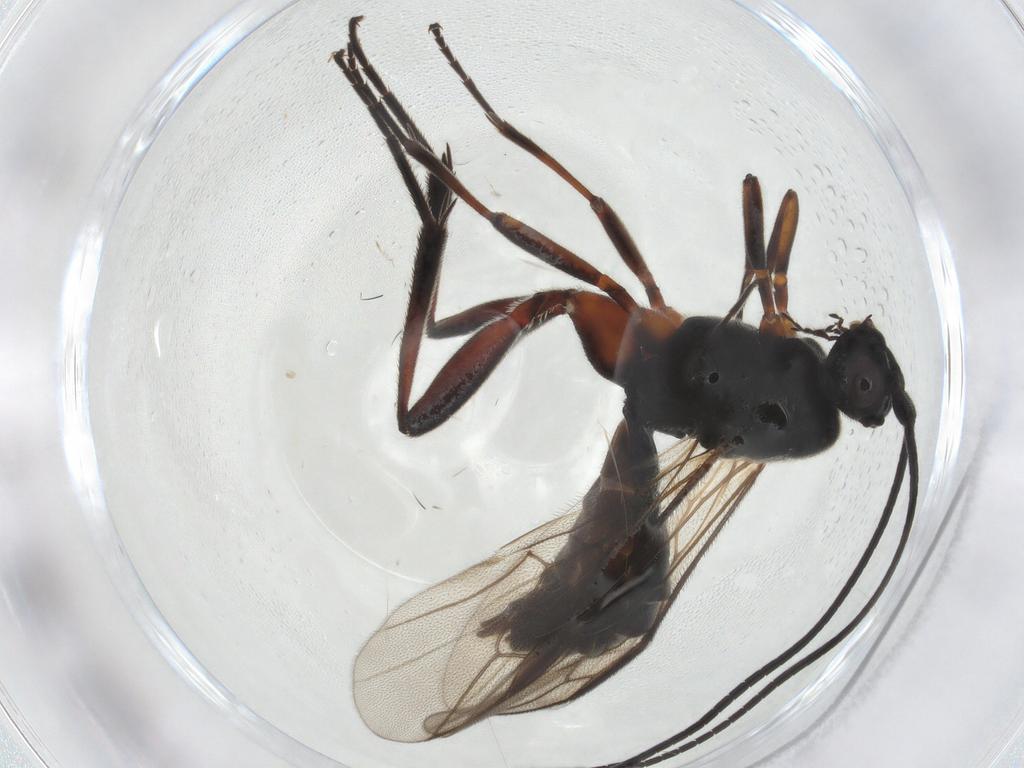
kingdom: Animalia
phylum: Arthropoda
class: Insecta
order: Hymenoptera
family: Braconidae
